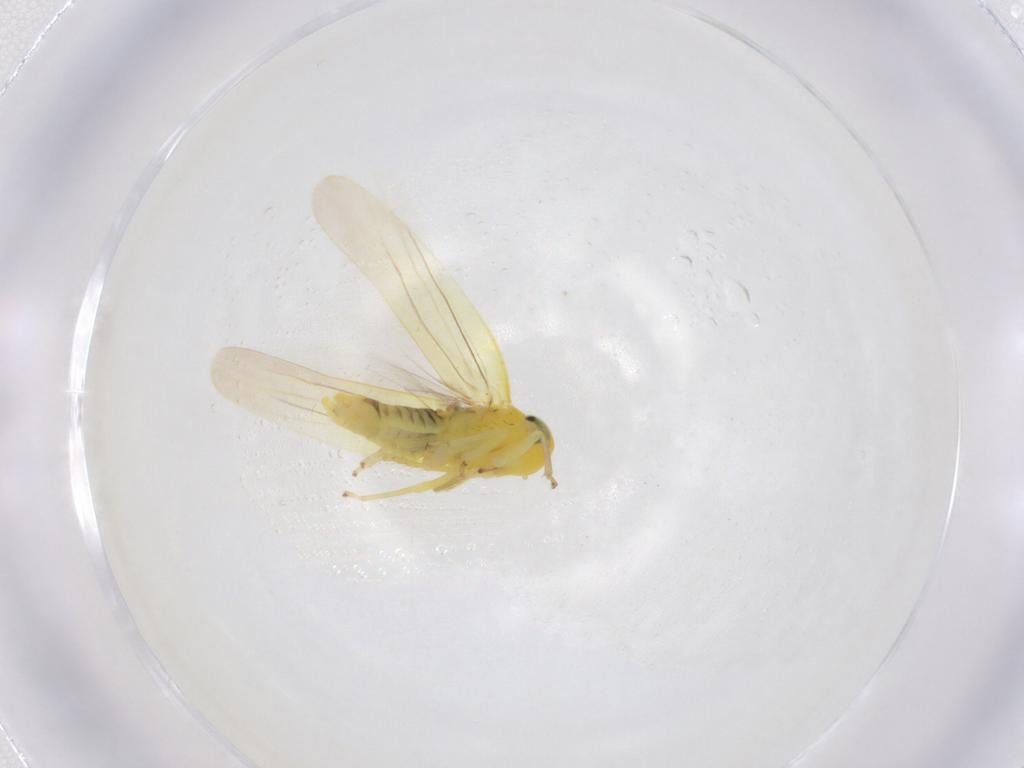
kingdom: Animalia
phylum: Arthropoda
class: Insecta
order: Hemiptera
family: Cicadellidae
